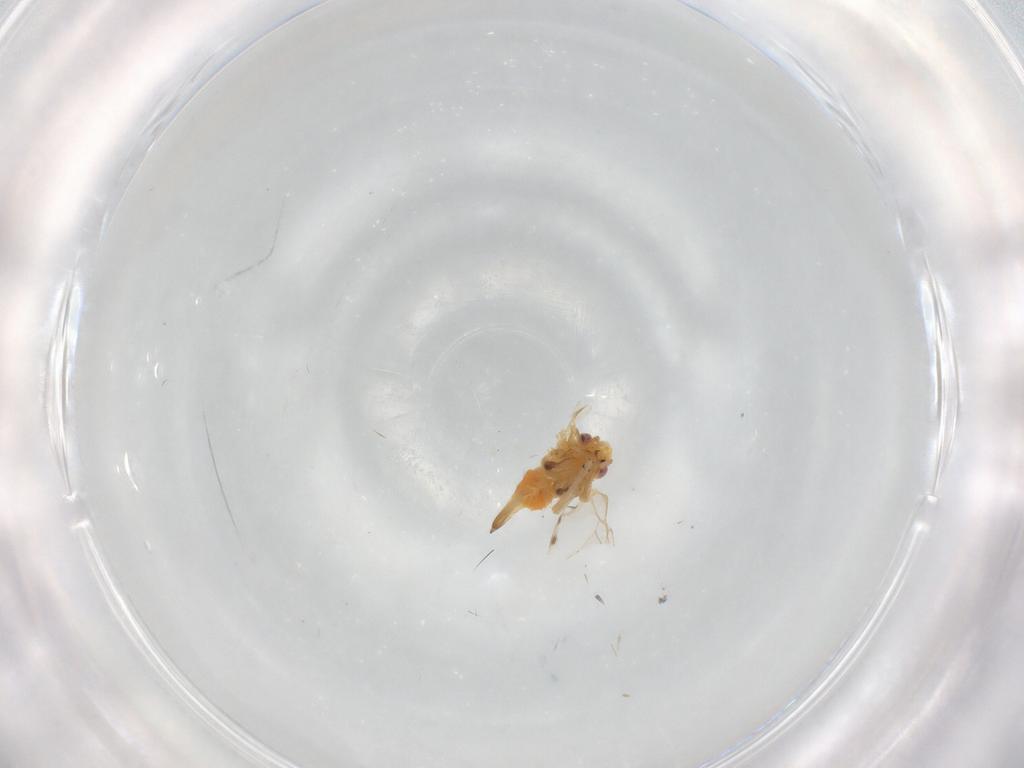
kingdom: Animalia
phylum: Arthropoda
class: Insecta
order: Hemiptera
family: Psyllidae
